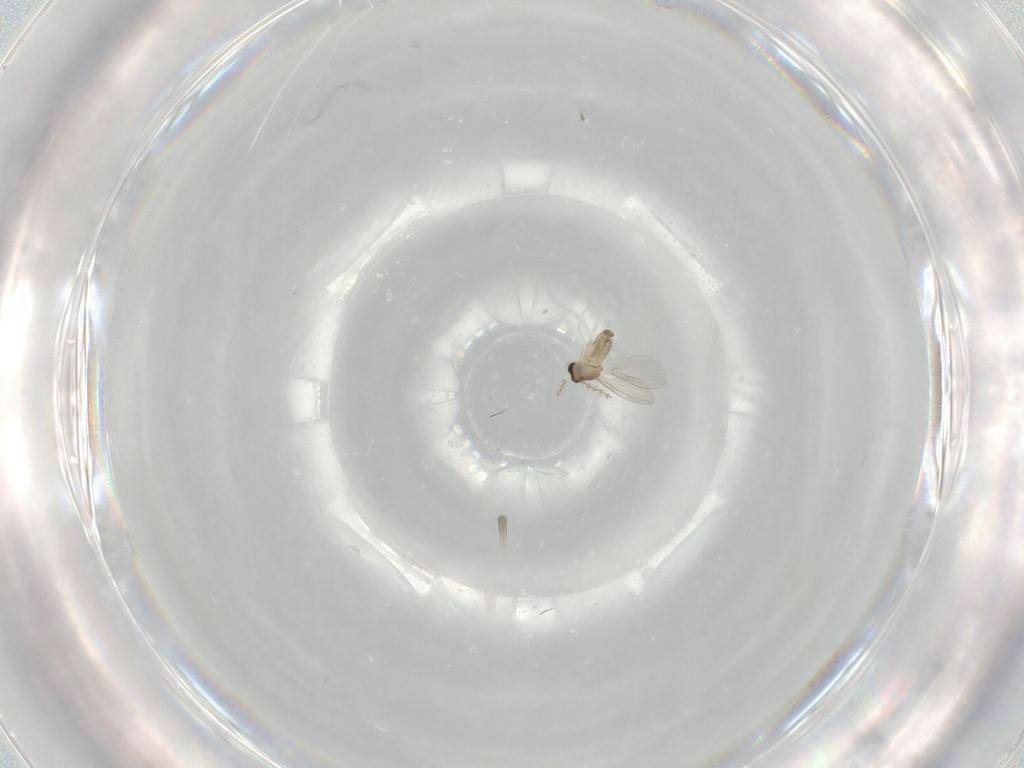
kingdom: Animalia
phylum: Arthropoda
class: Insecta
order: Diptera
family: Cecidomyiidae
